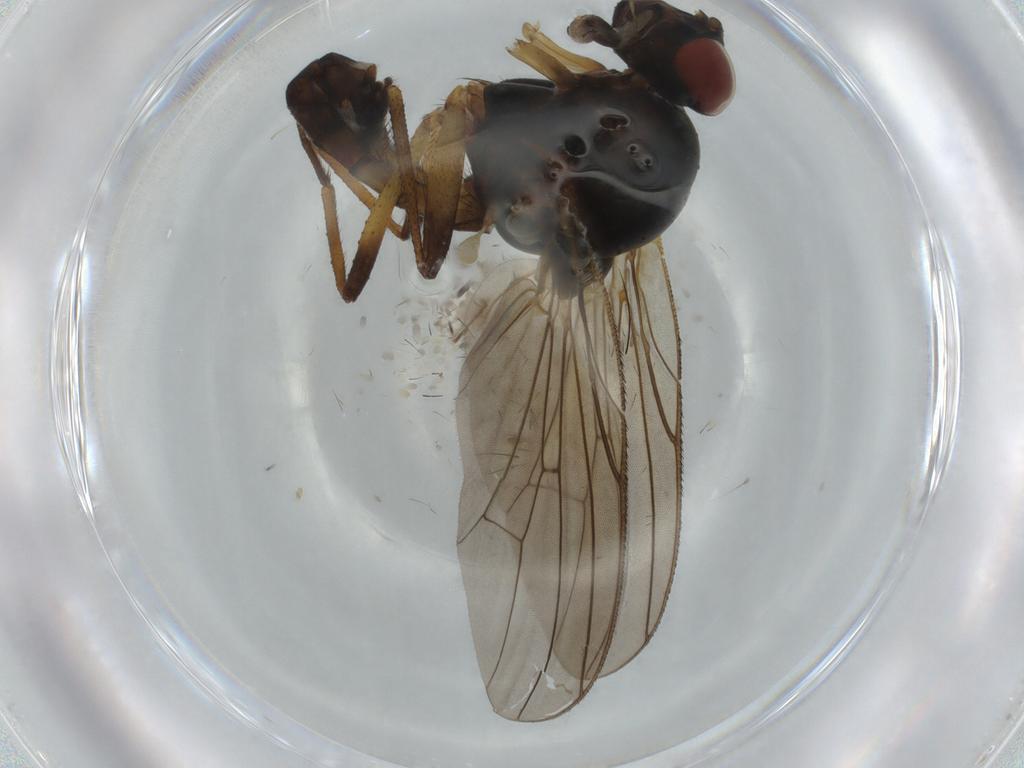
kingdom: Animalia
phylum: Arthropoda
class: Insecta
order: Diptera
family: Anthomyiidae
